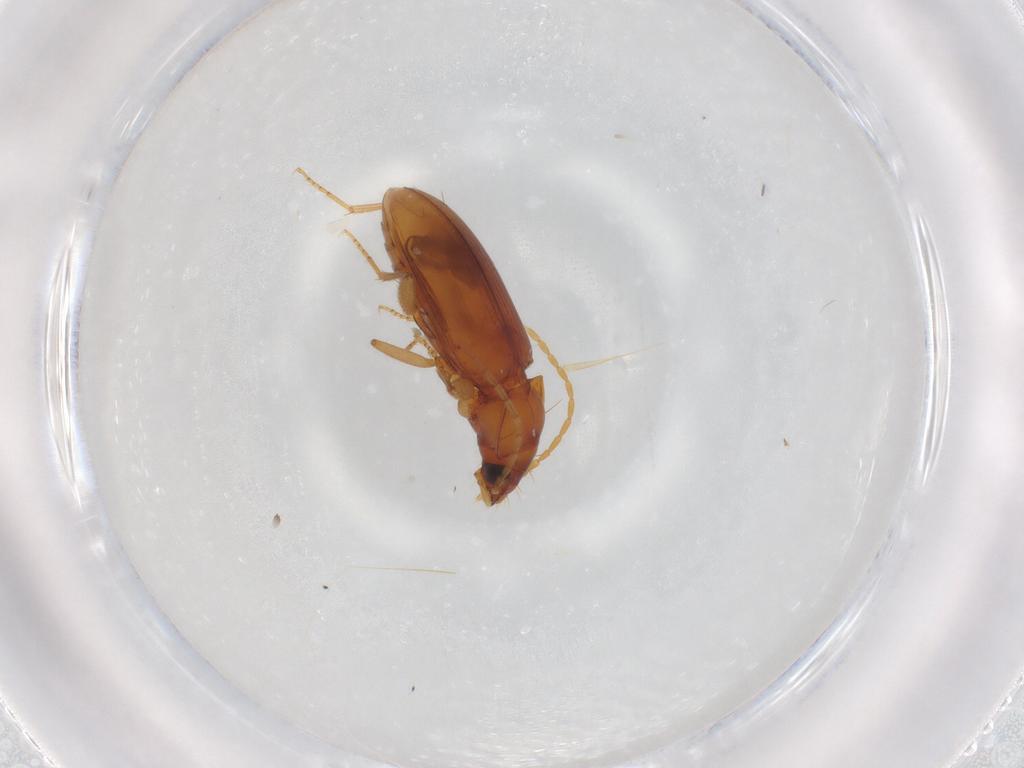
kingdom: Animalia
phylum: Arthropoda
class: Insecta
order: Coleoptera
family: Carabidae
